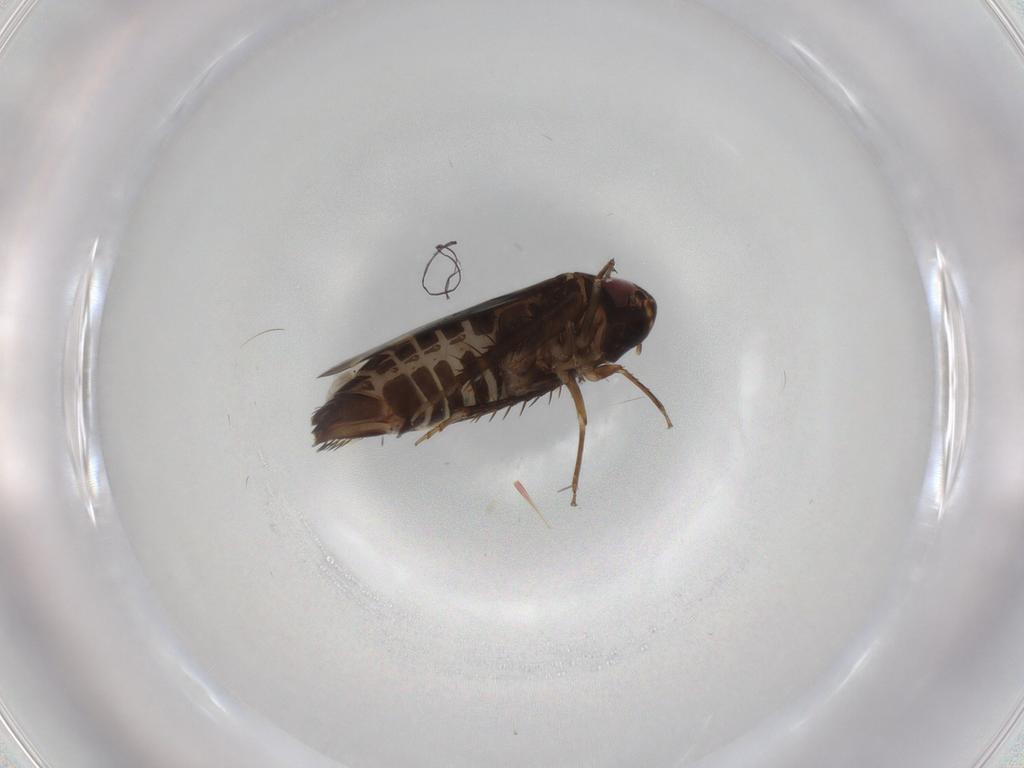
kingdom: Animalia
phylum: Arthropoda
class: Insecta
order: Hemiptera
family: Cicadellidae
